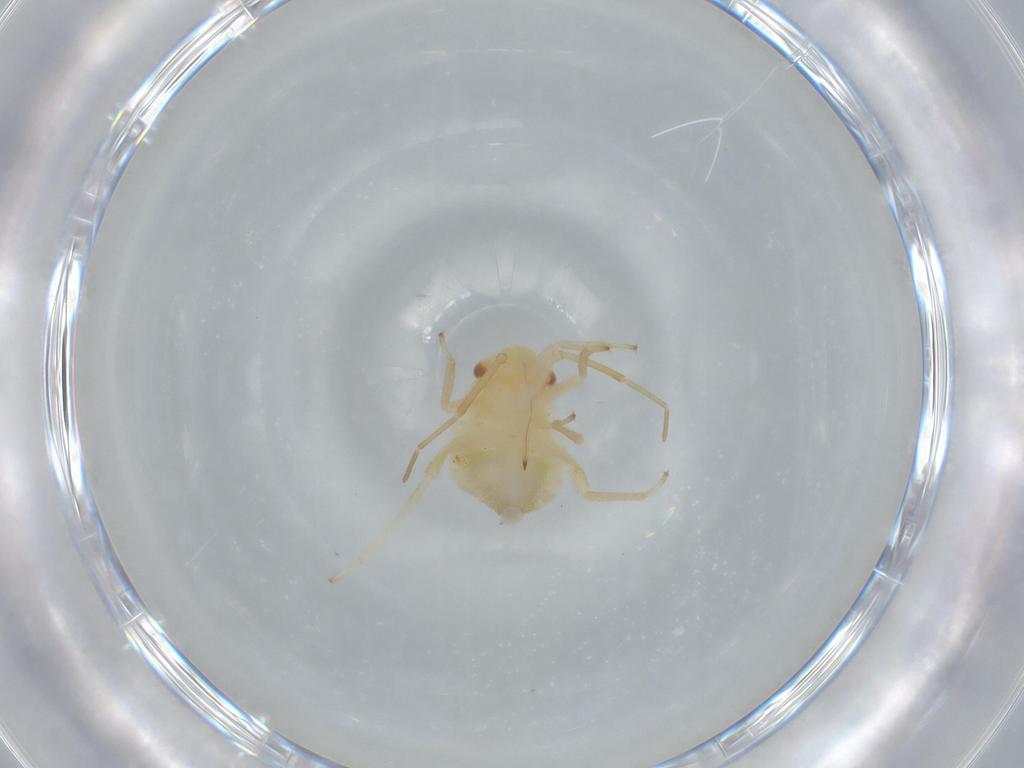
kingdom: Animalia
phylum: Arthropoda
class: Insecta
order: Hemiptera
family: Miridae
